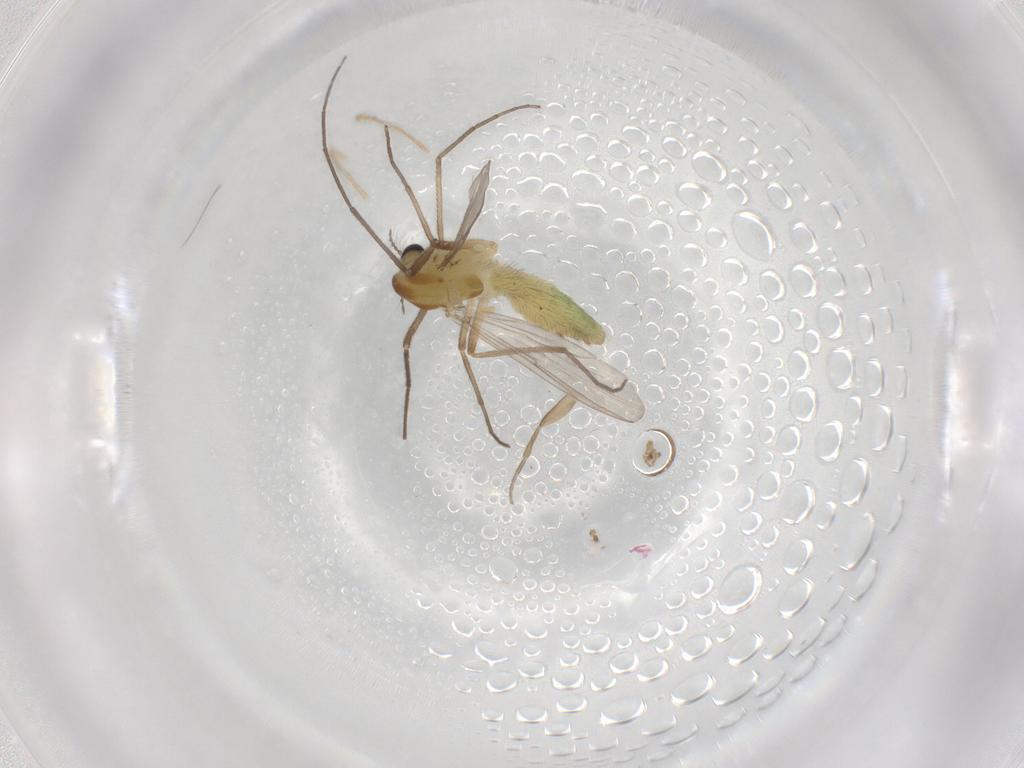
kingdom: Animalia
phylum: Arthropoda
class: Insecta
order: Diptera
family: Chironomidae
